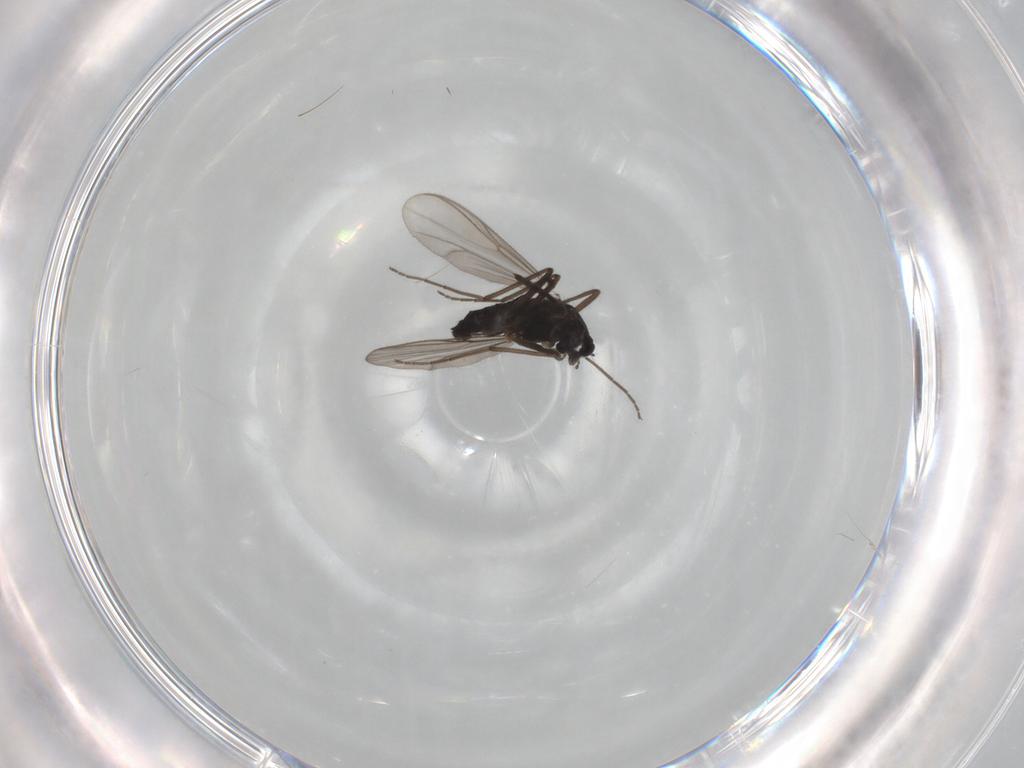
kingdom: Animalia
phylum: Arthropoda
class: Insecta
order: Diptera
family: Chironomidae
